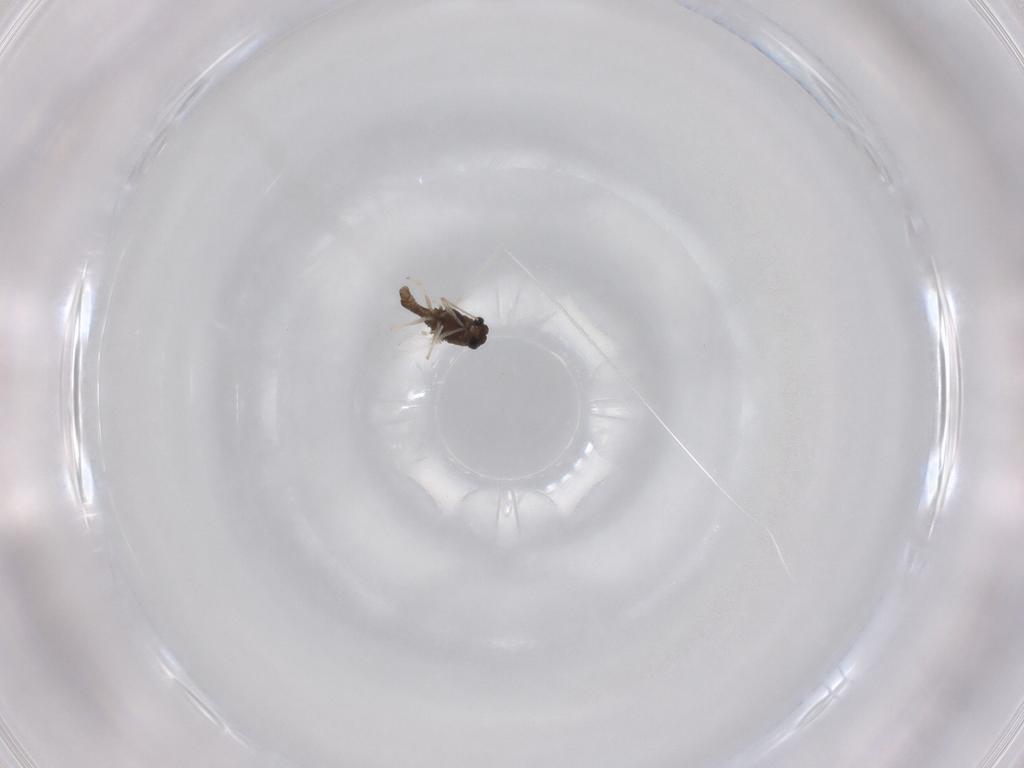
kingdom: Animalia
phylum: Arthropoda
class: Insecta
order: Diptera
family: Chironomidae
